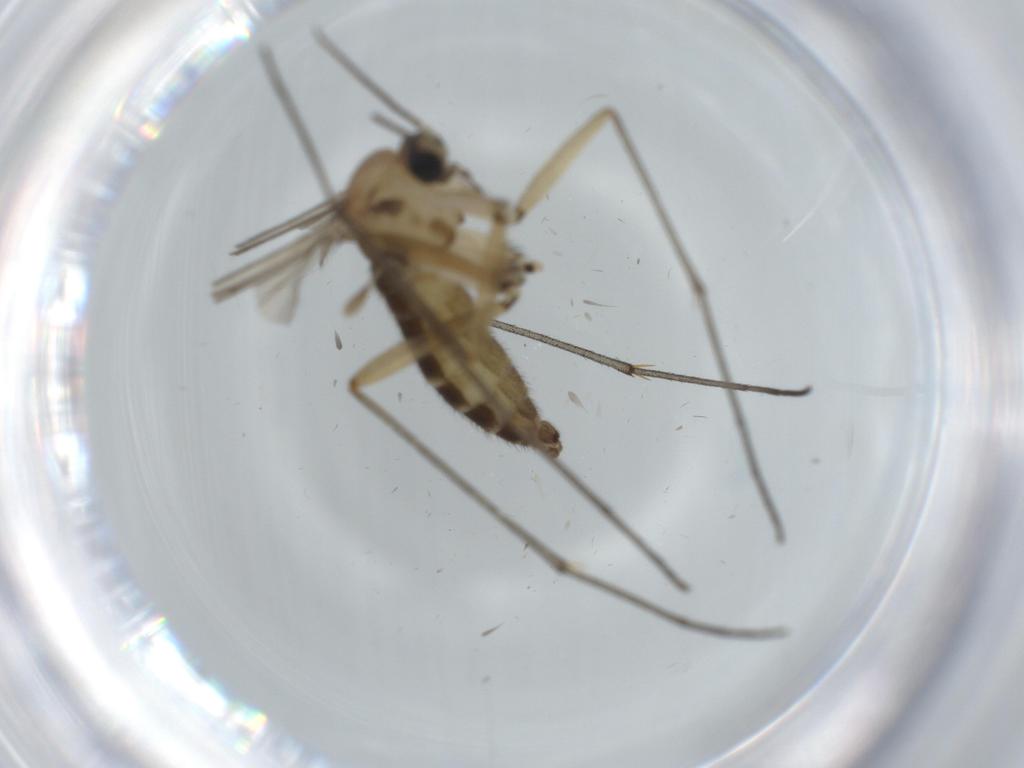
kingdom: Animalia
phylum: Arthropoda
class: Insecta
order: Diptera
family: Sciaridae
